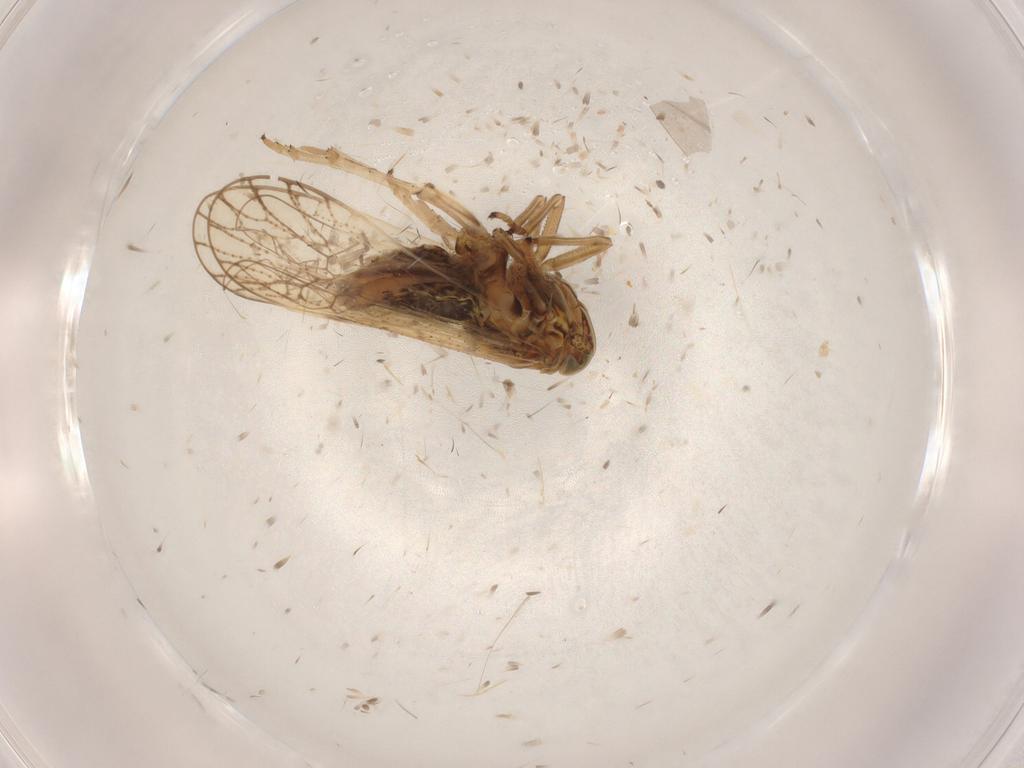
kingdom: Animalia
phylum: Arthropoda
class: Insecta
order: Hemiptera
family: Delphacidae
